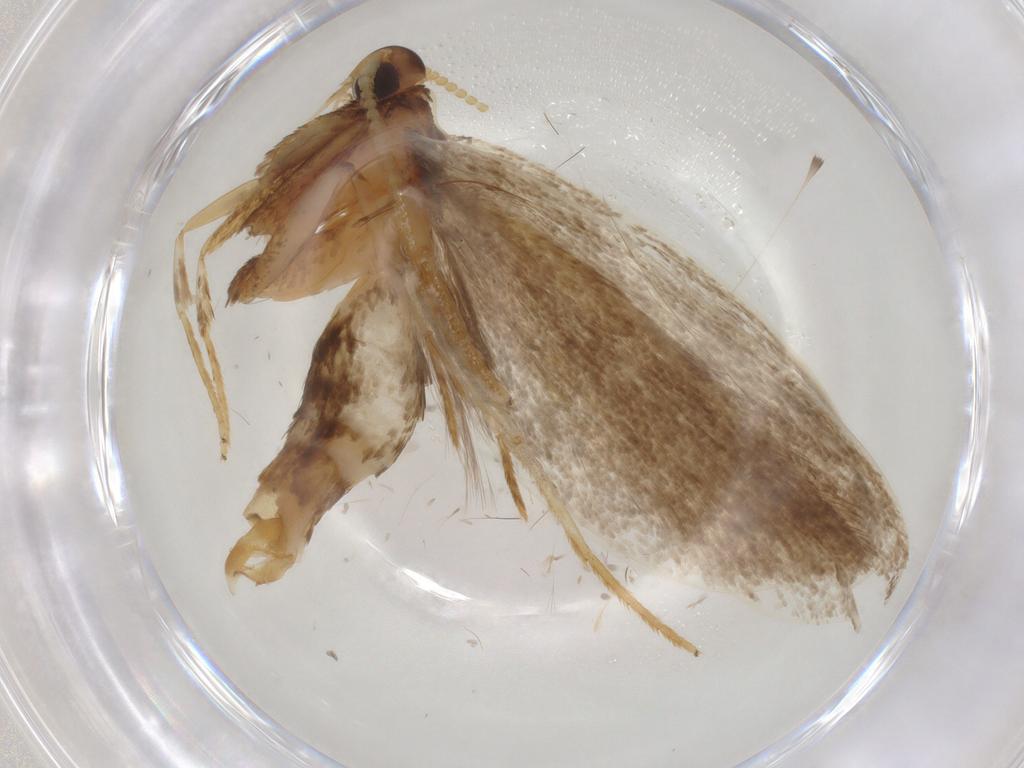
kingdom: Animalia
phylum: Arthropoda
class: Insecta
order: Lepidoptera
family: Lecithoceridae
